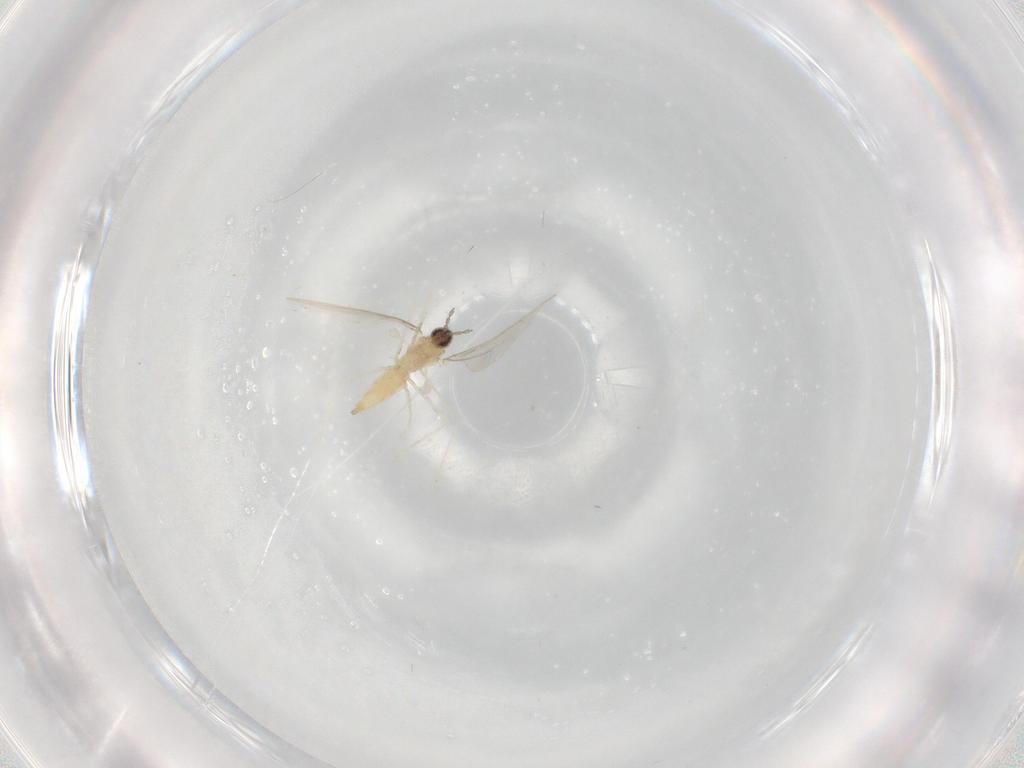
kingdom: Animalia
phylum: Arthropoda
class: Insecta
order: Diptera
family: Cecidomyiidae
